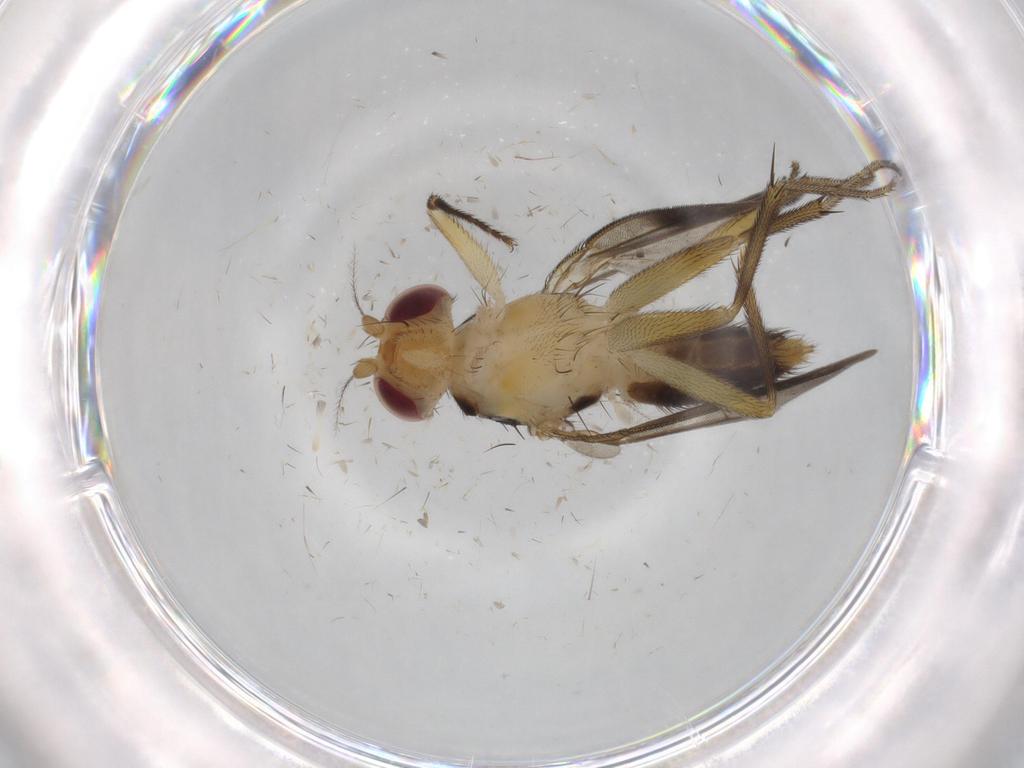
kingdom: Animalia
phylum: Arthropoda
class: Insecta
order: Diptera
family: Clusiidae
